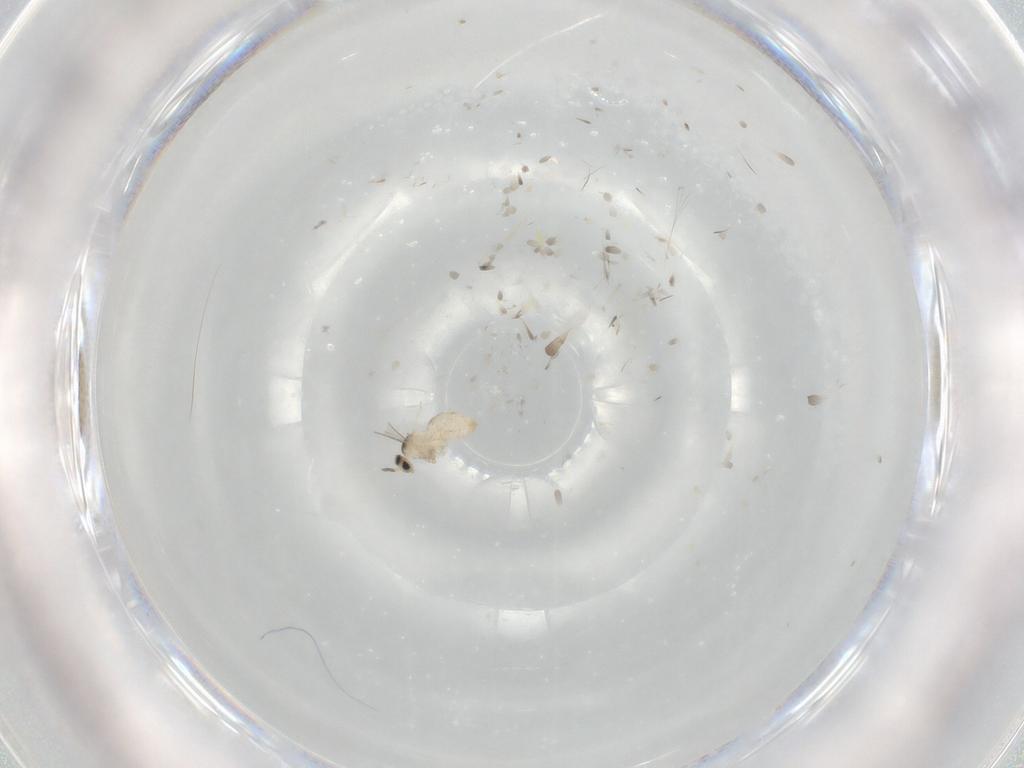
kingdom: Animalia
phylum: Arthropoda
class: Insecta
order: Diptera
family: Cecidomyiidae
